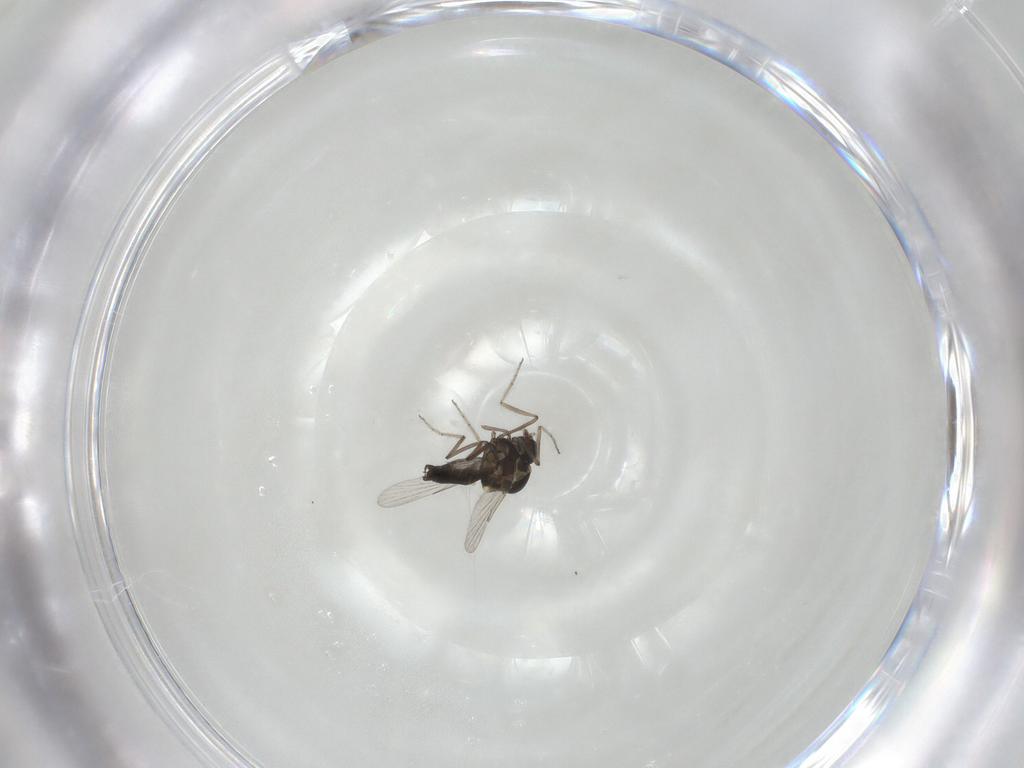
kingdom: Animalia
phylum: Arthropoda
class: Insecta
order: Diptera
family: Ceratopogonidae
